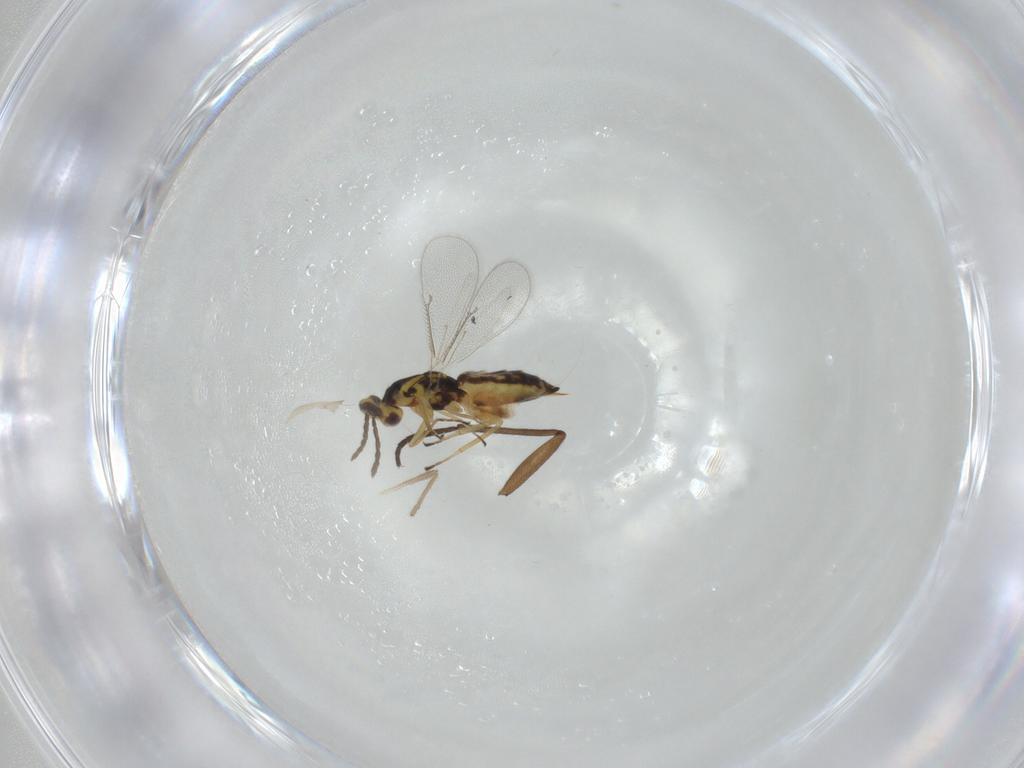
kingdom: Animalia
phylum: Arthropoda
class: Insecta
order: Hymenoptera
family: Eulophidae
